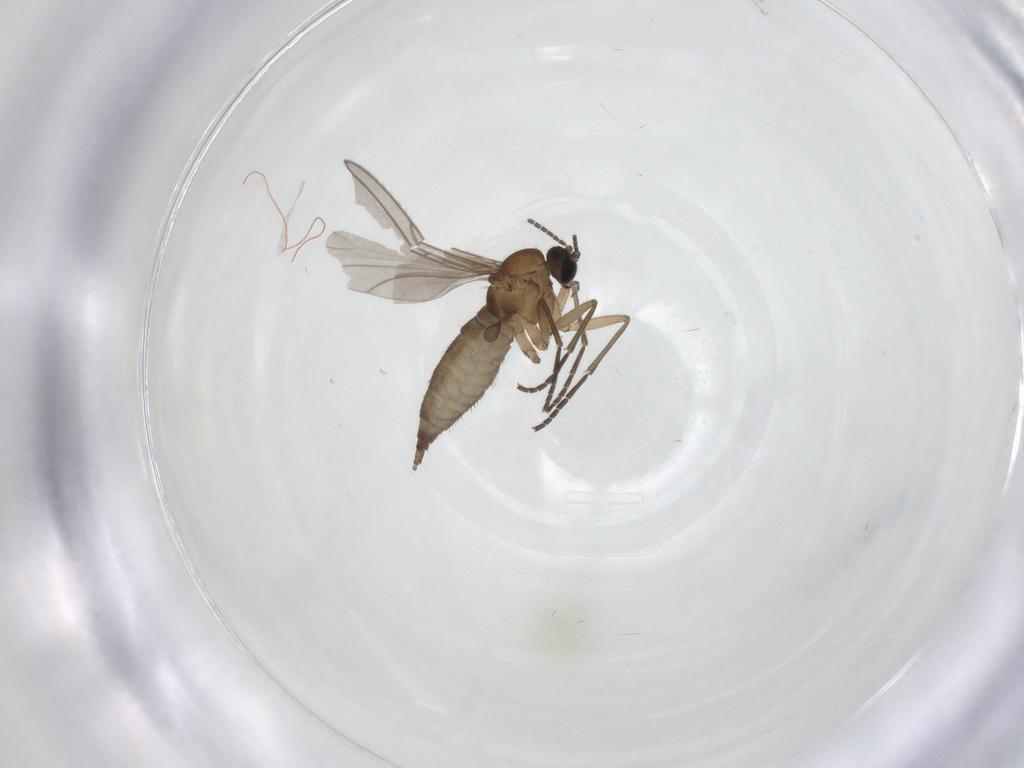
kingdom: Animalia
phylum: Arthropoda
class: Insecta
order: Diptera
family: Sciaridae
